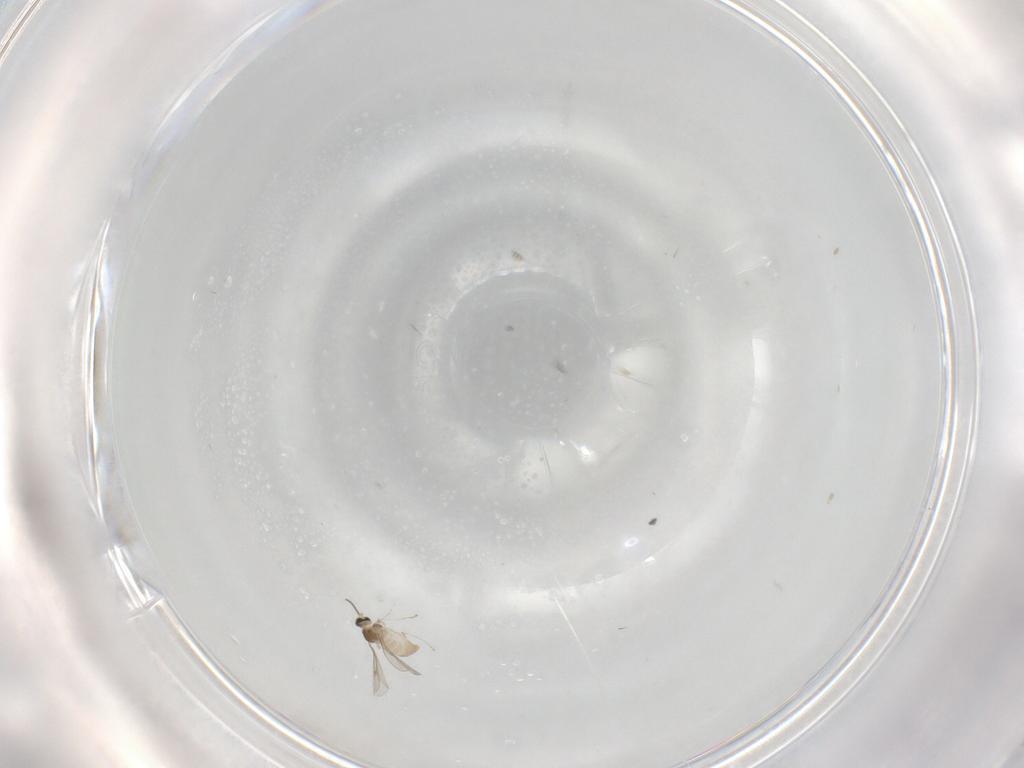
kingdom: Animalia
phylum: Arthropoda
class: Insecta
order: Diptera
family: Cecidomyiidae
